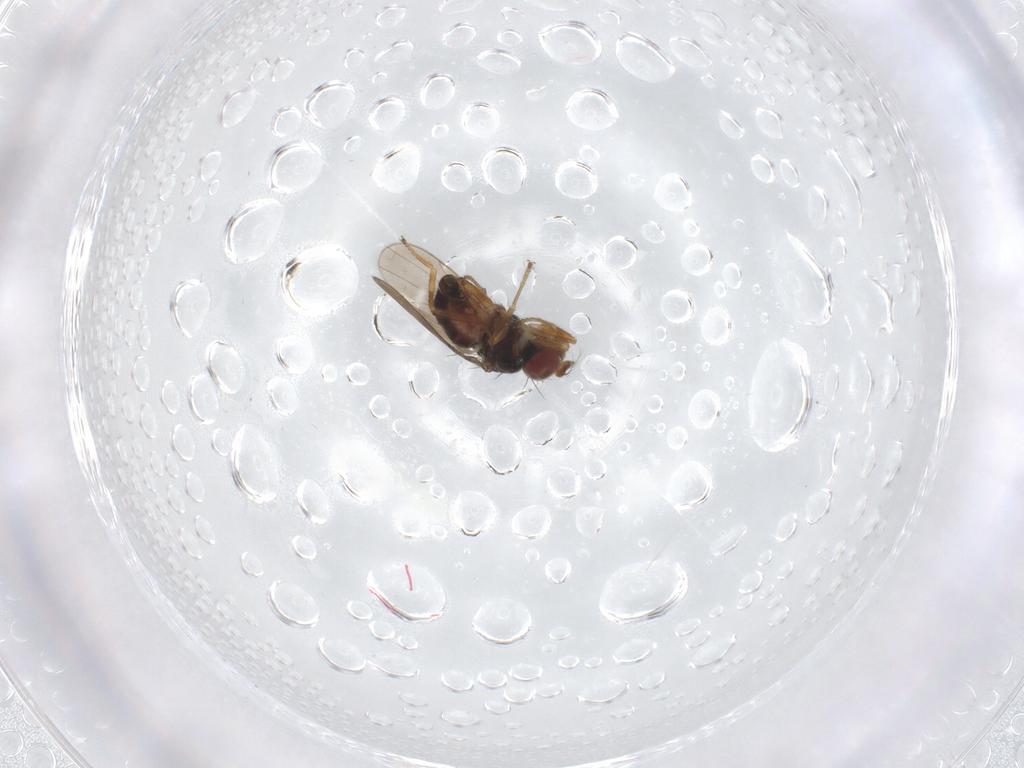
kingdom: Animalia
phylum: Arthropoda
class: Insecta
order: Diptera
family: Ephydridae
